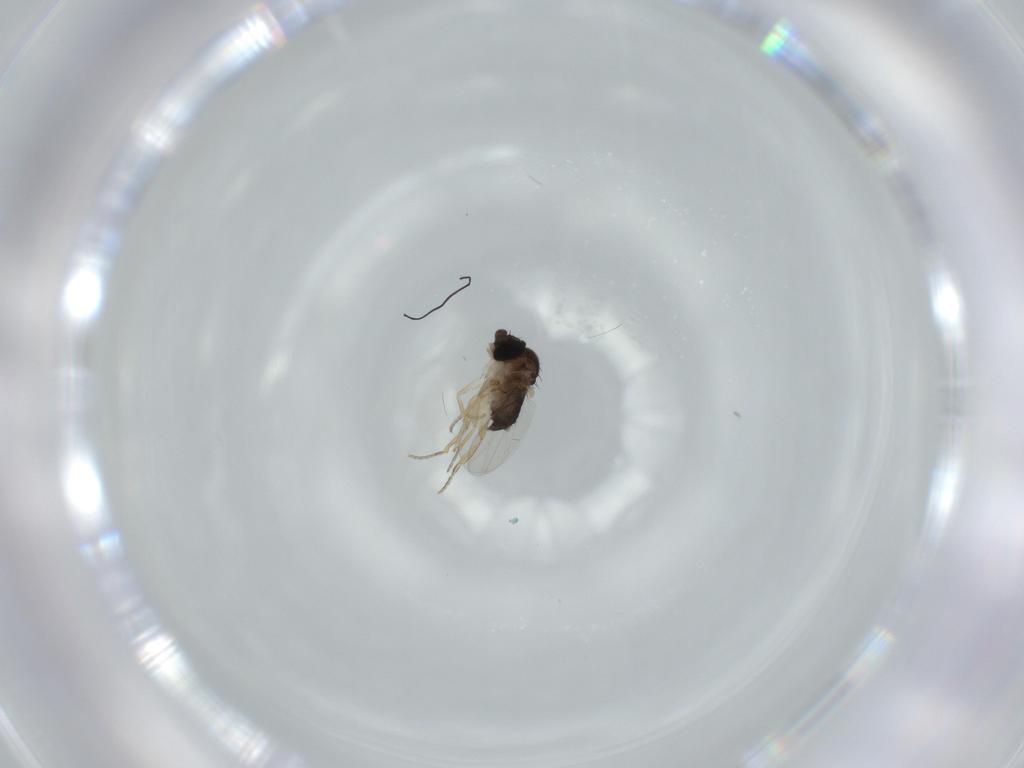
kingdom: Animalia
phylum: Arthropoda
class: Insecta
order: Diptera
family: Phoridae
